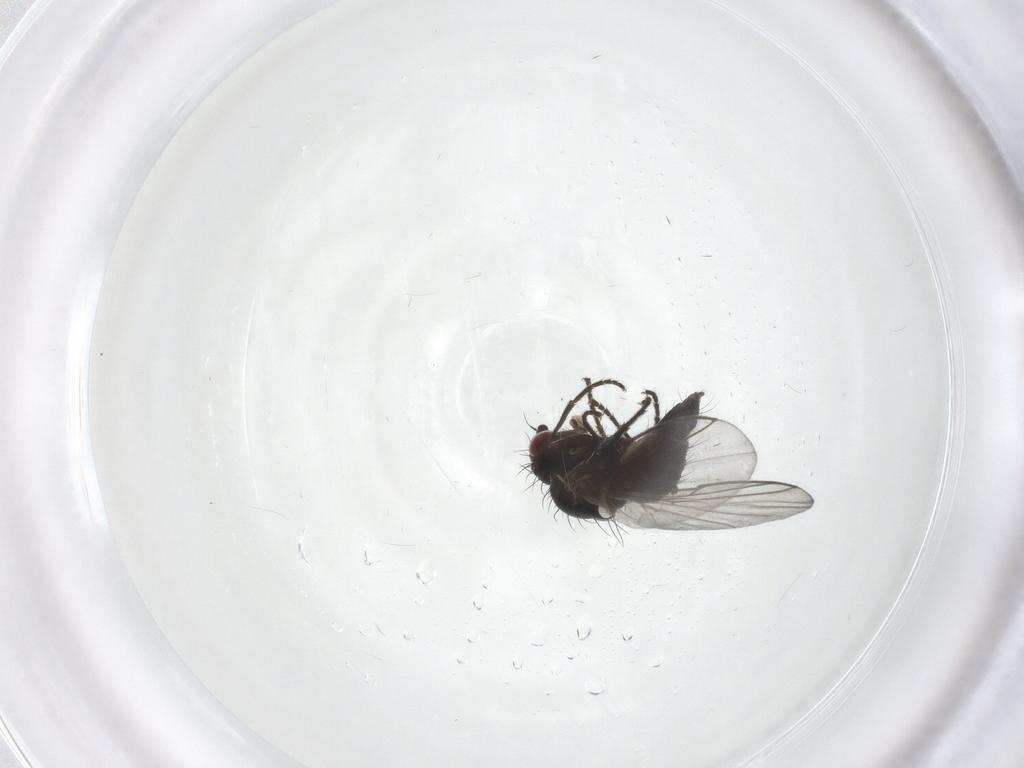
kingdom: Animalia
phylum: Arthropoda
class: Insecta
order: Diptera
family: Agromyzidae
